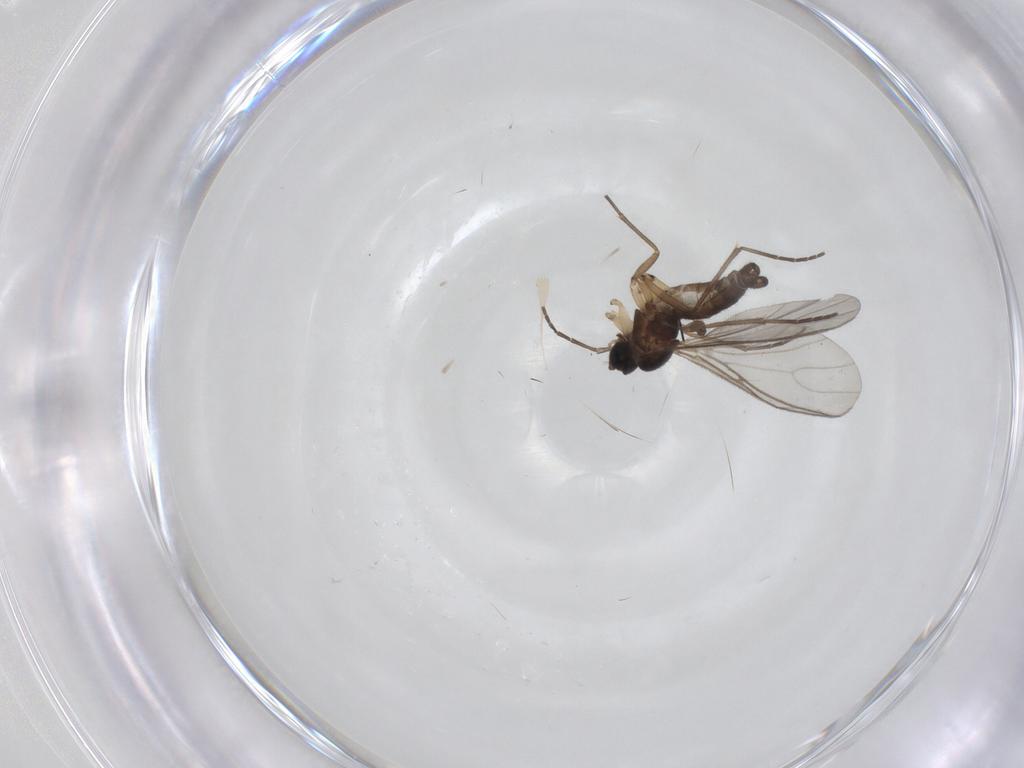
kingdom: Animalia
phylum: Arthropoda
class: Insecta
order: Diptera
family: Sciaridae
